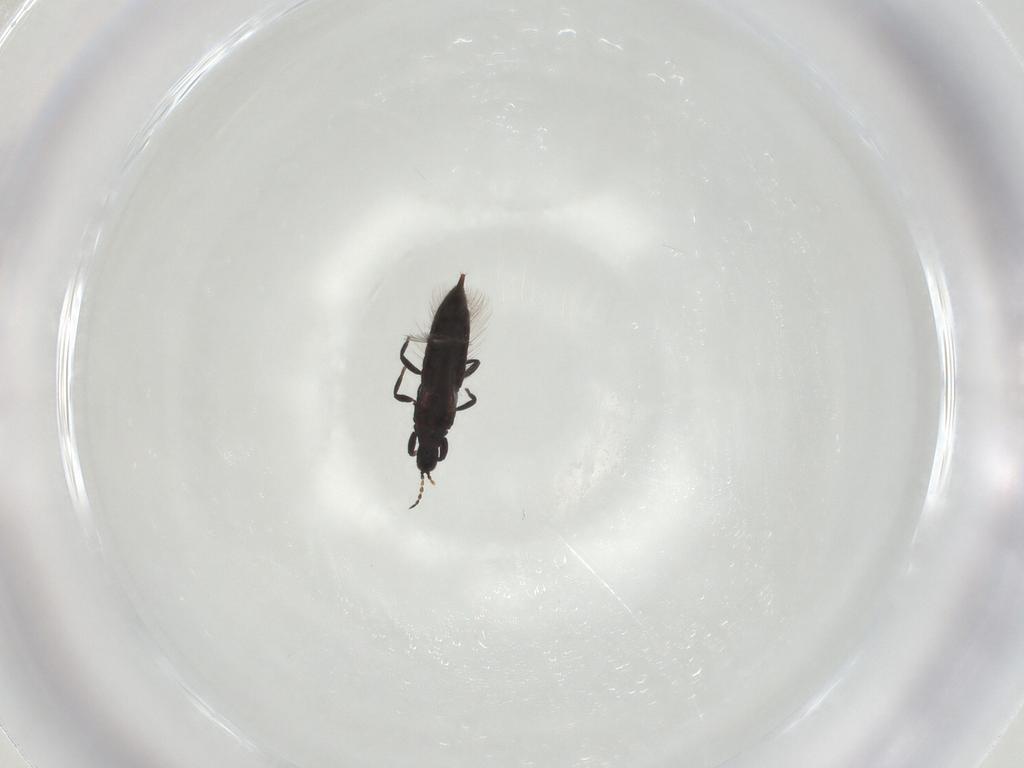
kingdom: Animalia
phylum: Arthropoda
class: Insecta
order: Thysanoptera
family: Phlaeothripidae
